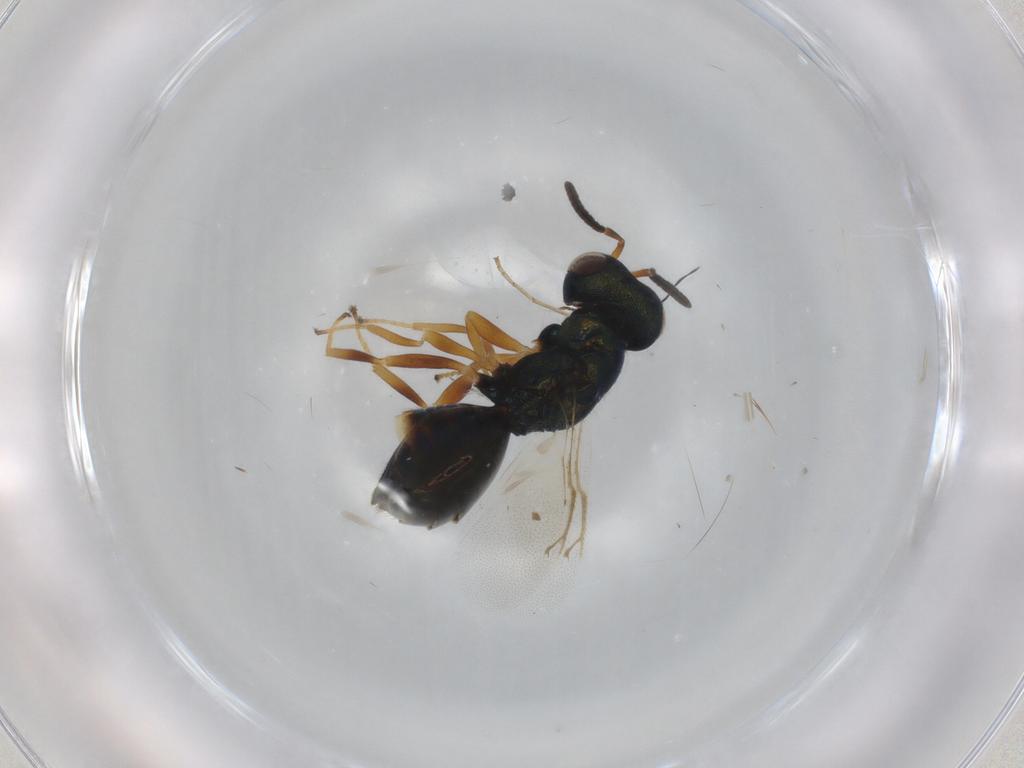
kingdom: Animalia
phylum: Arthropoda
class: Insecta
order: Hymenoptera
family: Pteromalidae
